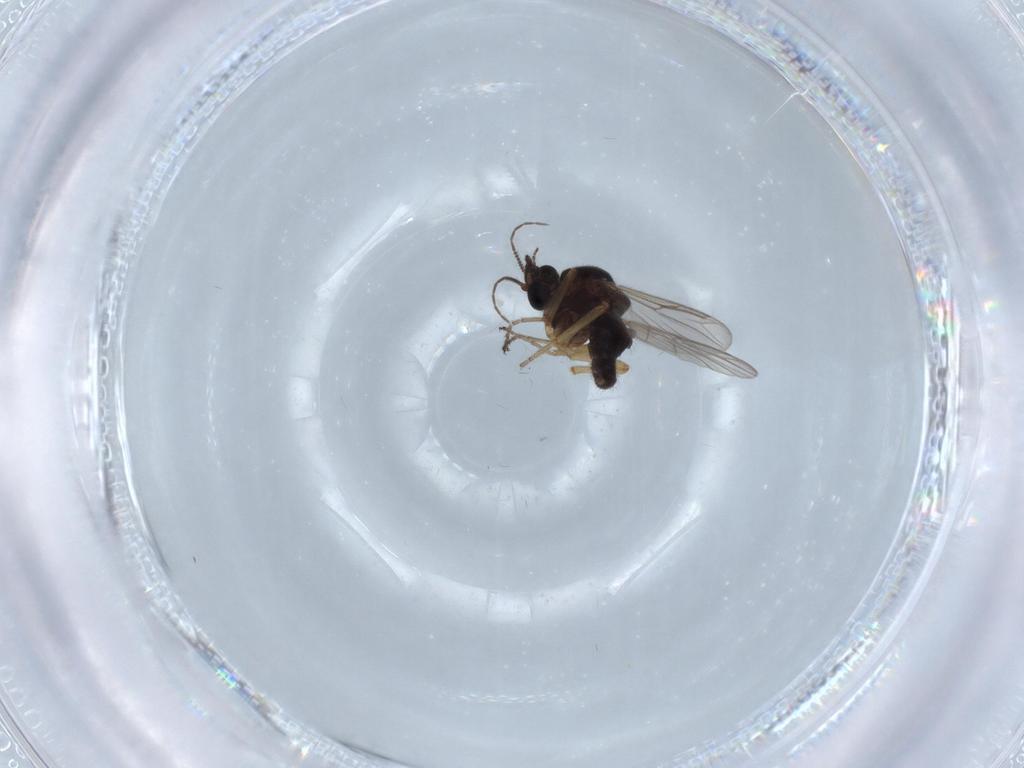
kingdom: Animalia
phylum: Arthropoda
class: Insecta
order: Diptera
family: Ceratopogonidae
